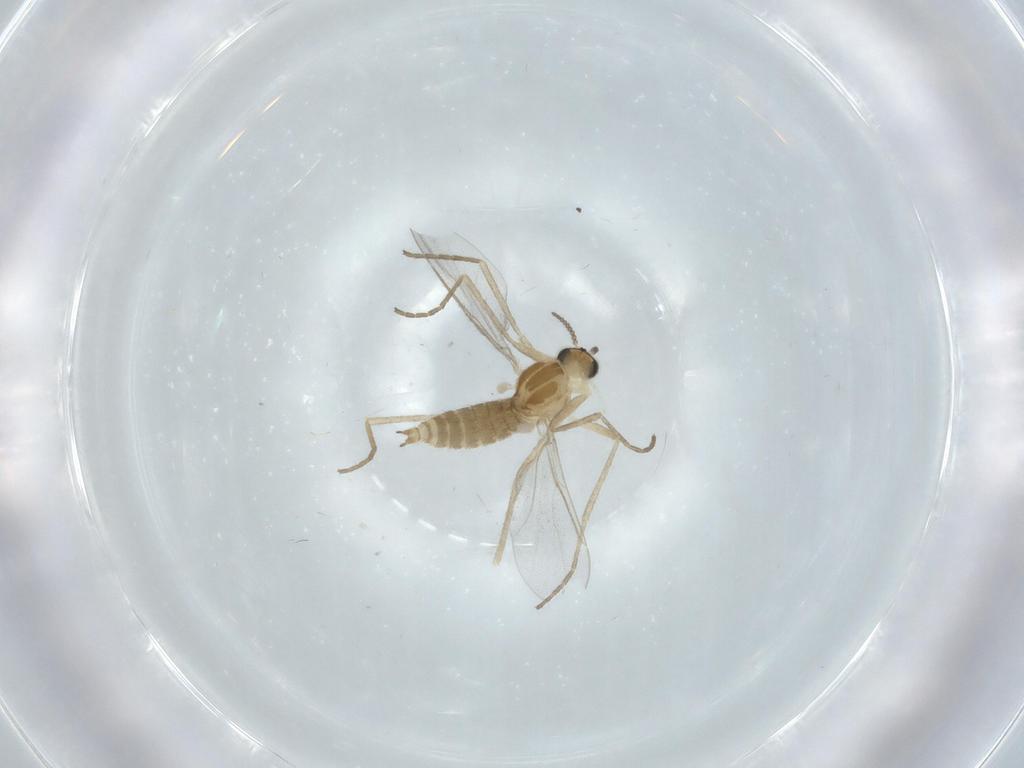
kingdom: Animalia
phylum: Arthropoda
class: Insecta
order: Diptera
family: Cecidomyiidae
